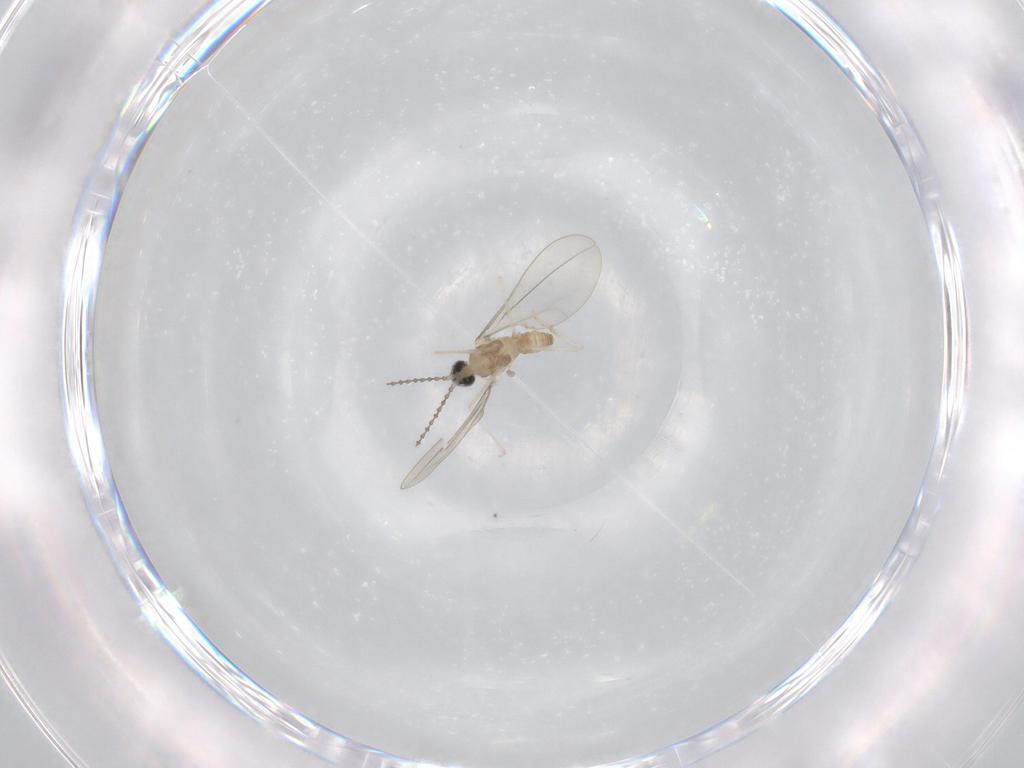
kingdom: Animalia
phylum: Arthropoda
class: Insecta
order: Diptera
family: Cecidomyiidae
